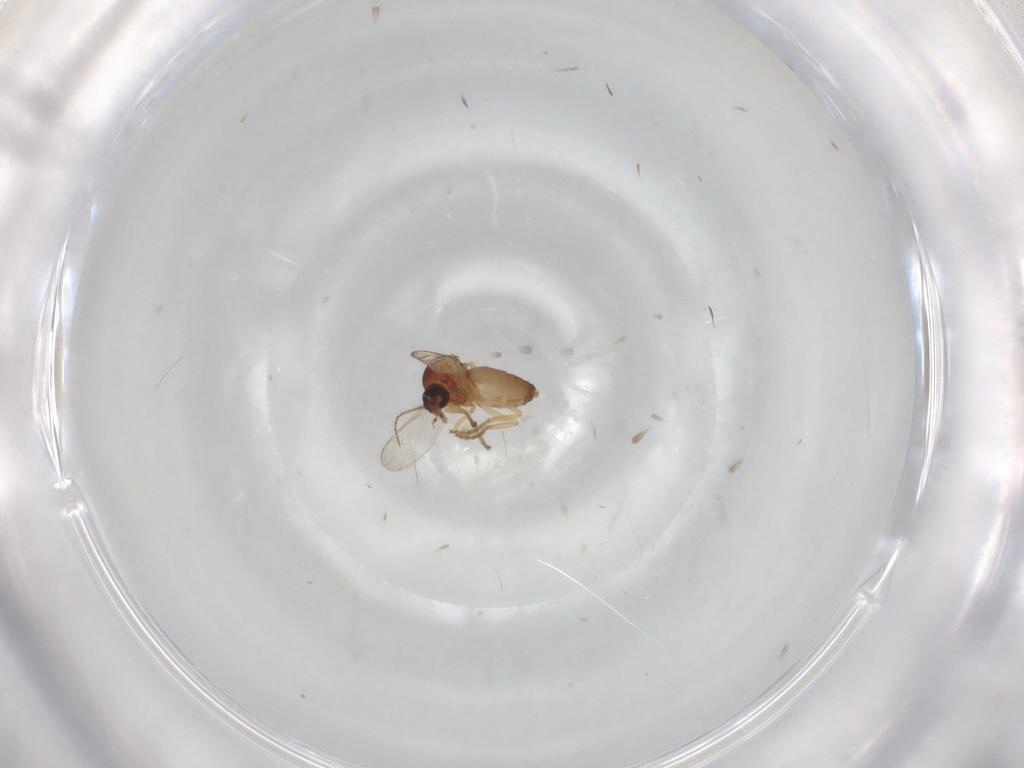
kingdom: Animalia
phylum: Arthropoda
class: Insecta
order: Diptera
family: Ceratopogonidae
